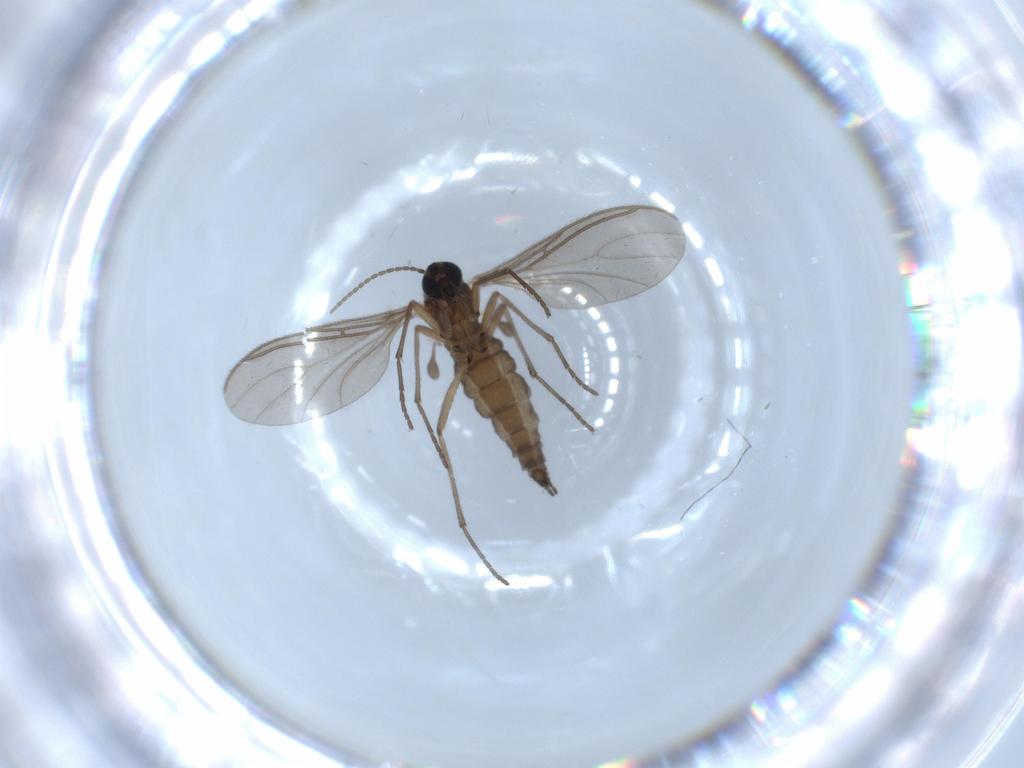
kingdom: Animalia
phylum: Arthropoda
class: Insecta
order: Diptera
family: Sciaridae
